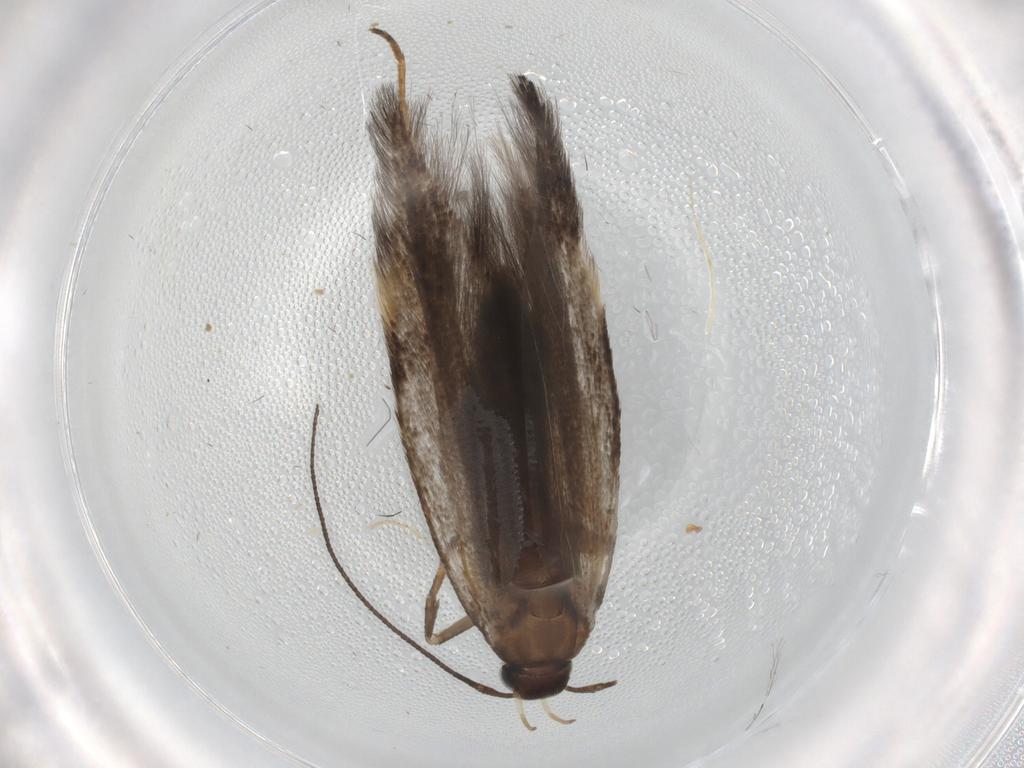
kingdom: Animalia
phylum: Arthropoda
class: Insecta
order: Lepidoptera
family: Gelechiidae
